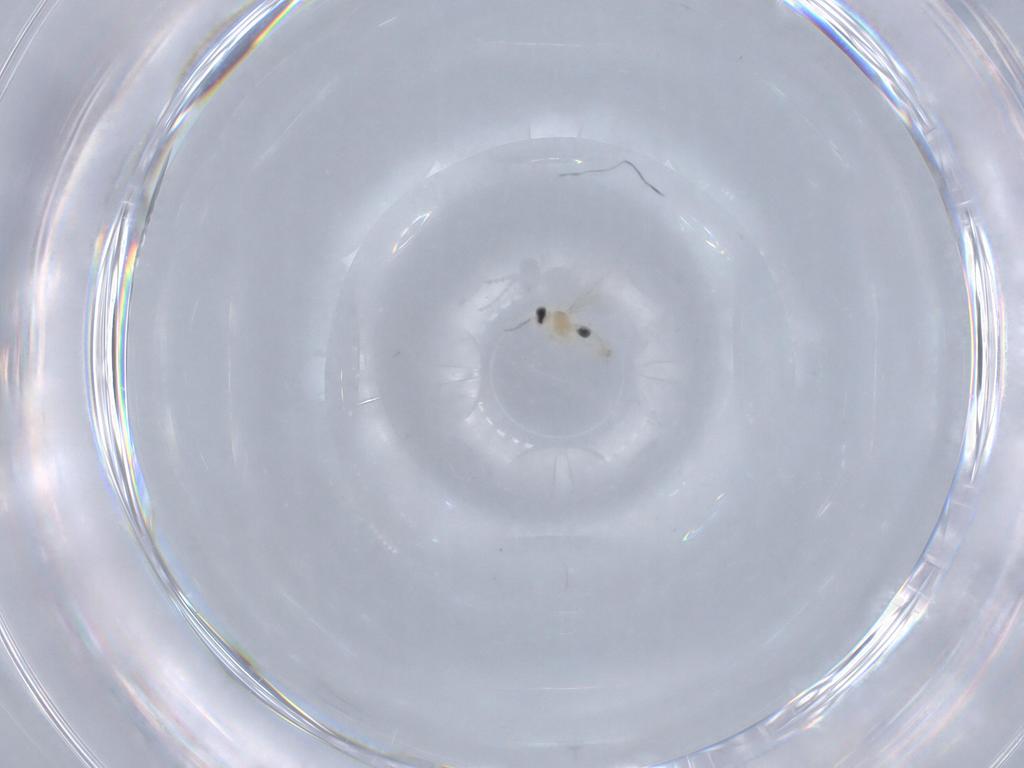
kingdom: Animalia
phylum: Arthropoda
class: Insecta
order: Diptera
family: Cecidomyiidae
